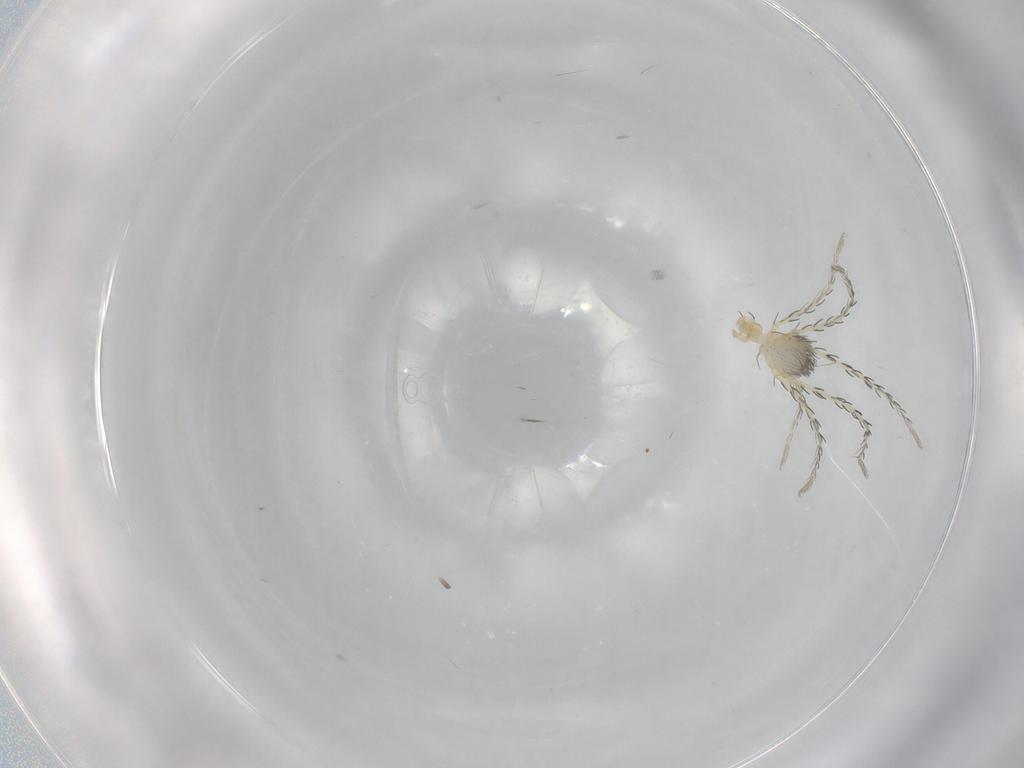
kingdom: Animalia
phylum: Arthropoda
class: Arachnida
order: Trombidiformes
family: Erythraeidae
